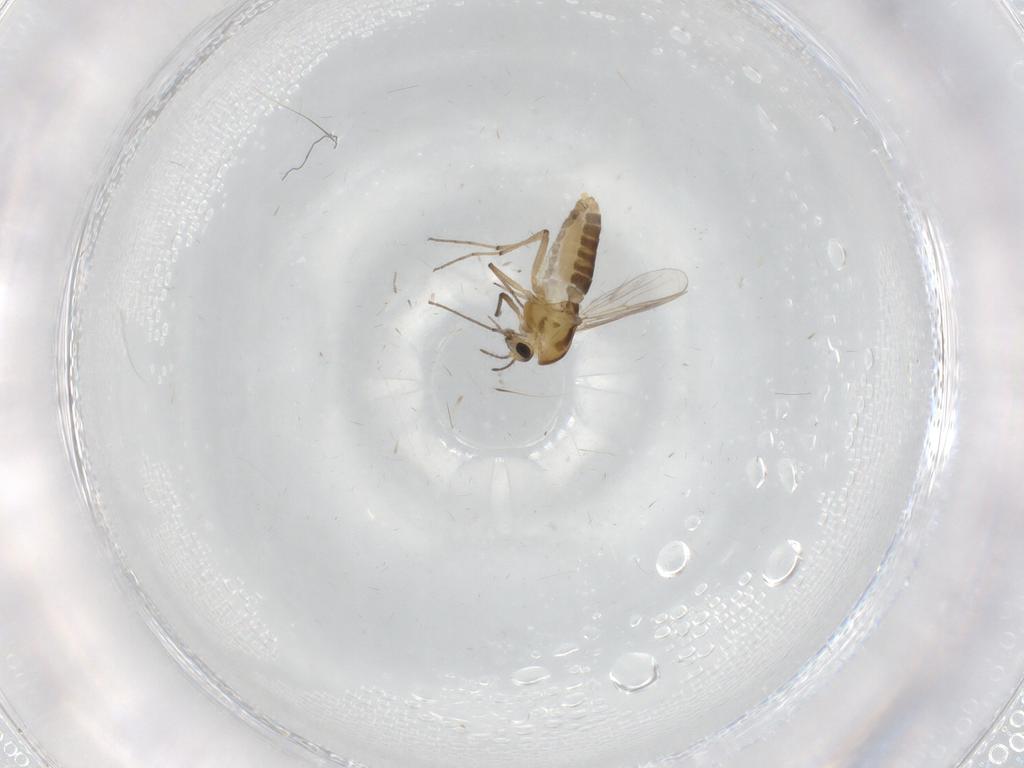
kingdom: Animalia
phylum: Arthropoda
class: Insecta
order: Diptera
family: Chironomidae
